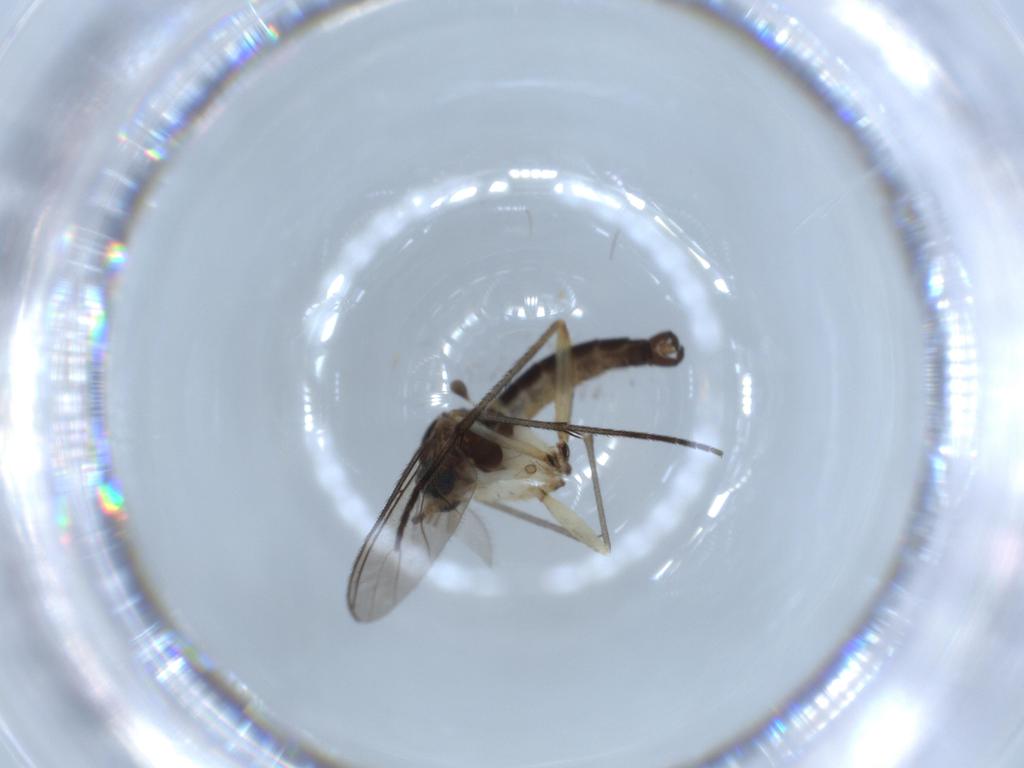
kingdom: Animalia
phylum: Arthropoda
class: Insecta
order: Diptera
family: Sciaridae
